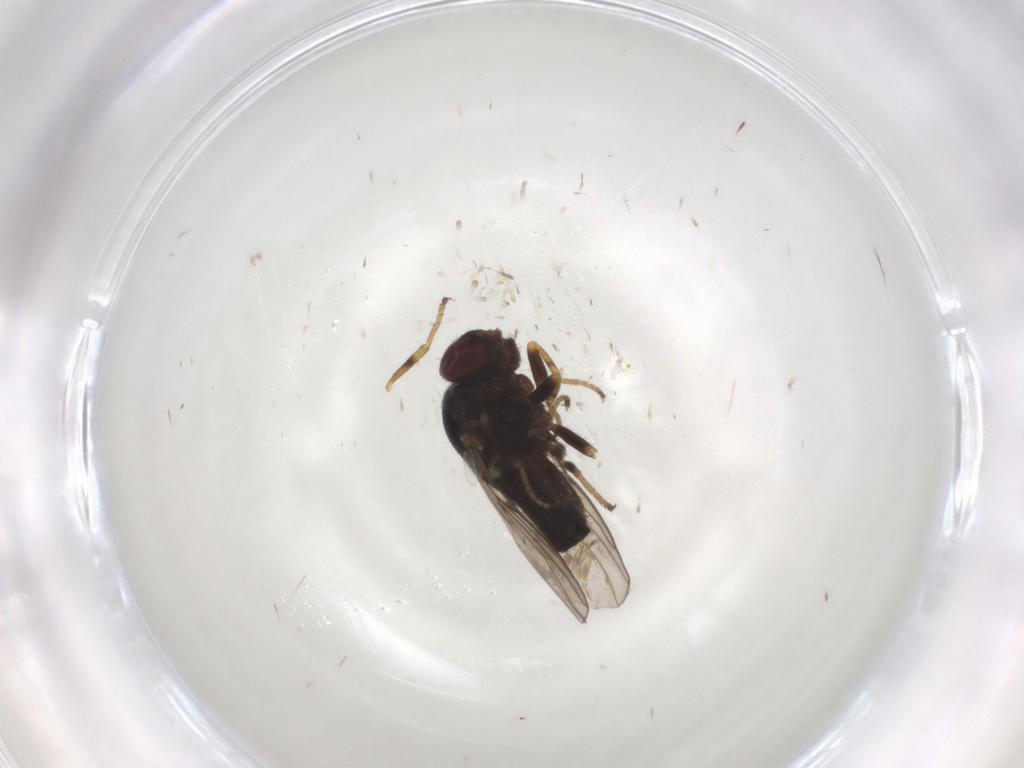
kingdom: Animalia
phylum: Arthropoda
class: Insecta
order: Diptera
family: Chloropidae
